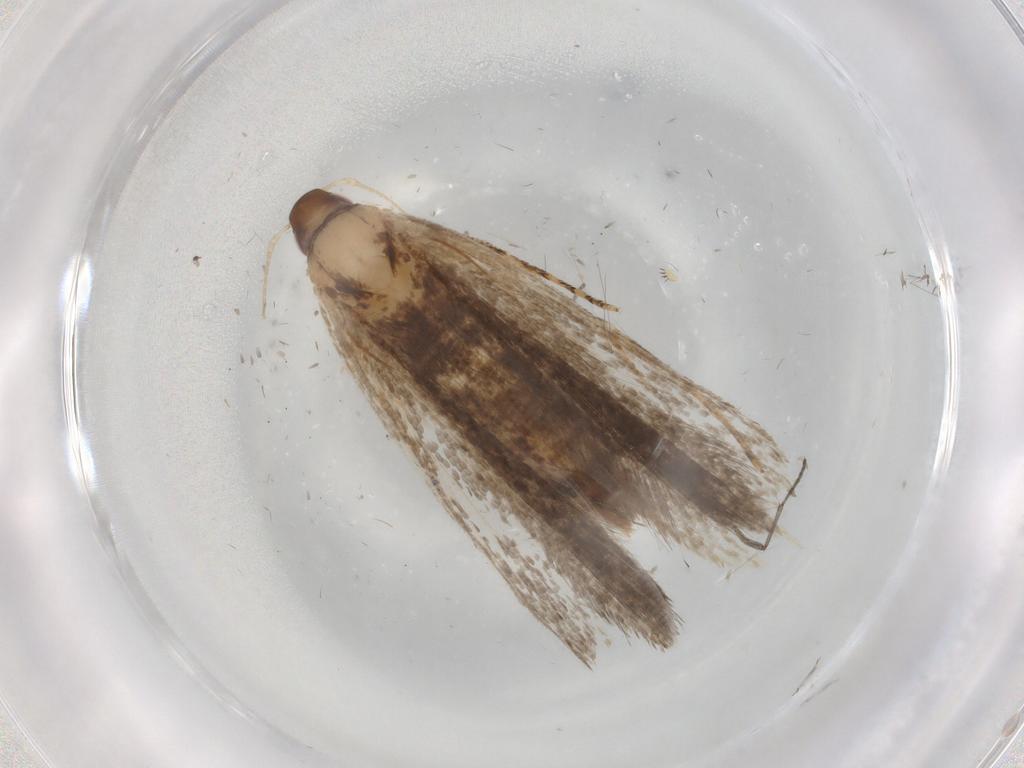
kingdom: Animalia
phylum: Arthropoda
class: Insecta
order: Lepidoptera
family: Gelechiidae
